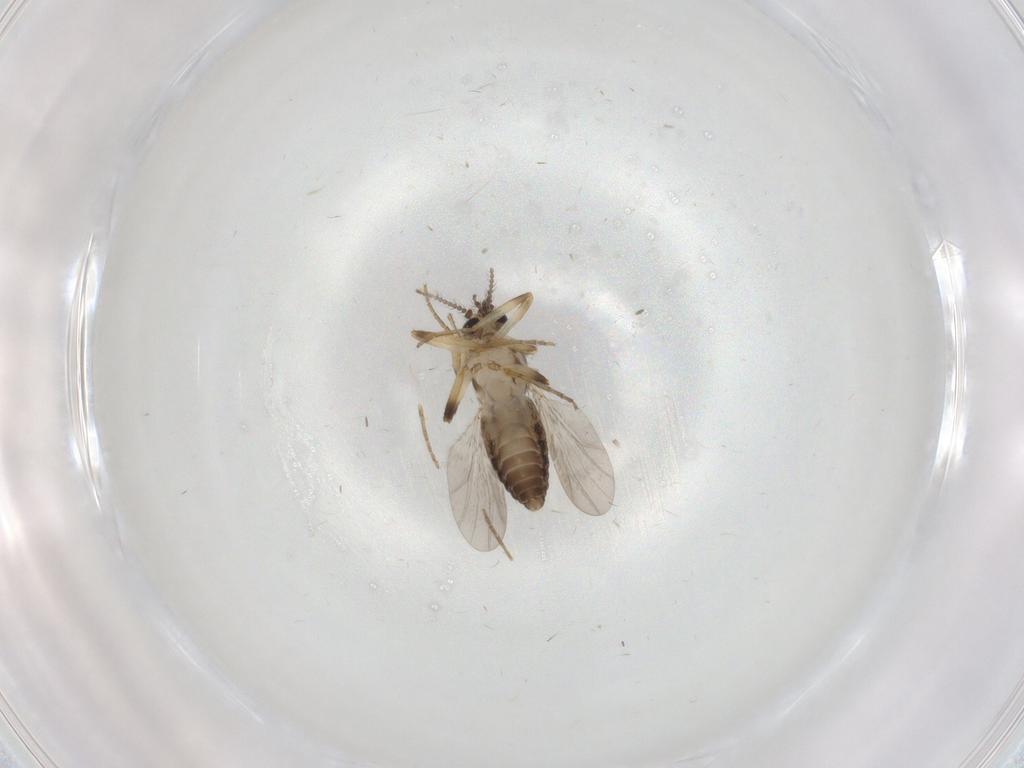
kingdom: Animalia
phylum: Arthropoda
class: Insecta
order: Diptera
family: Ceratopogonidae
